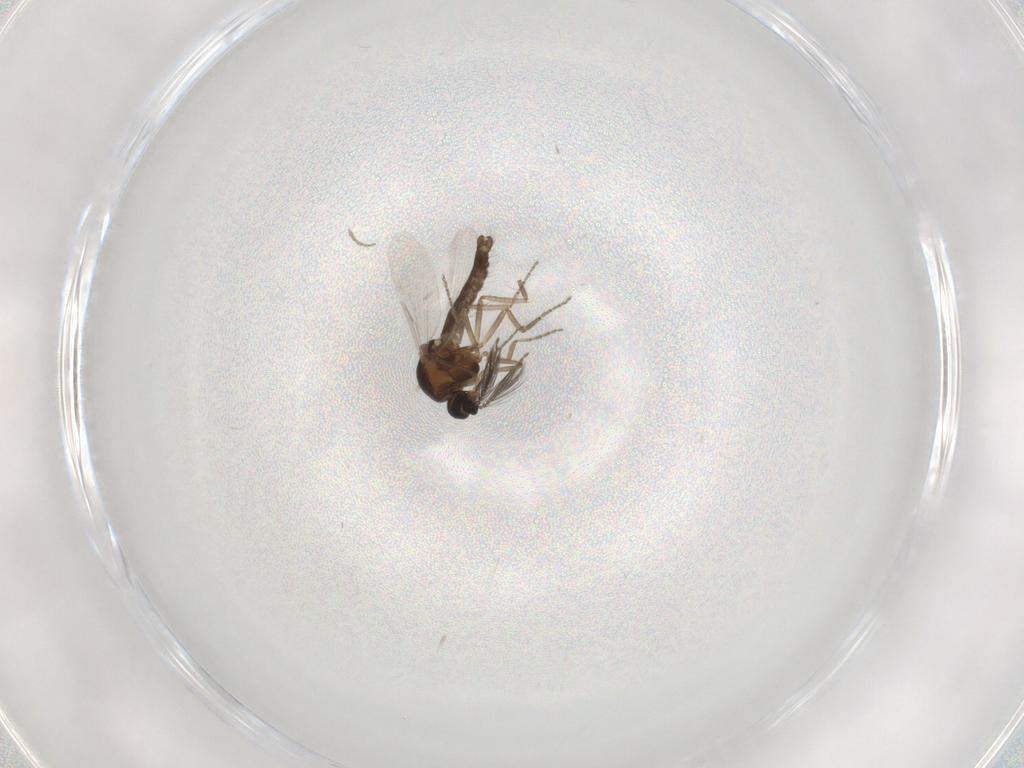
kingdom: Animalia
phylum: Arthropoda
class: Insecta
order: Diptera
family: Ceratopogonidae
